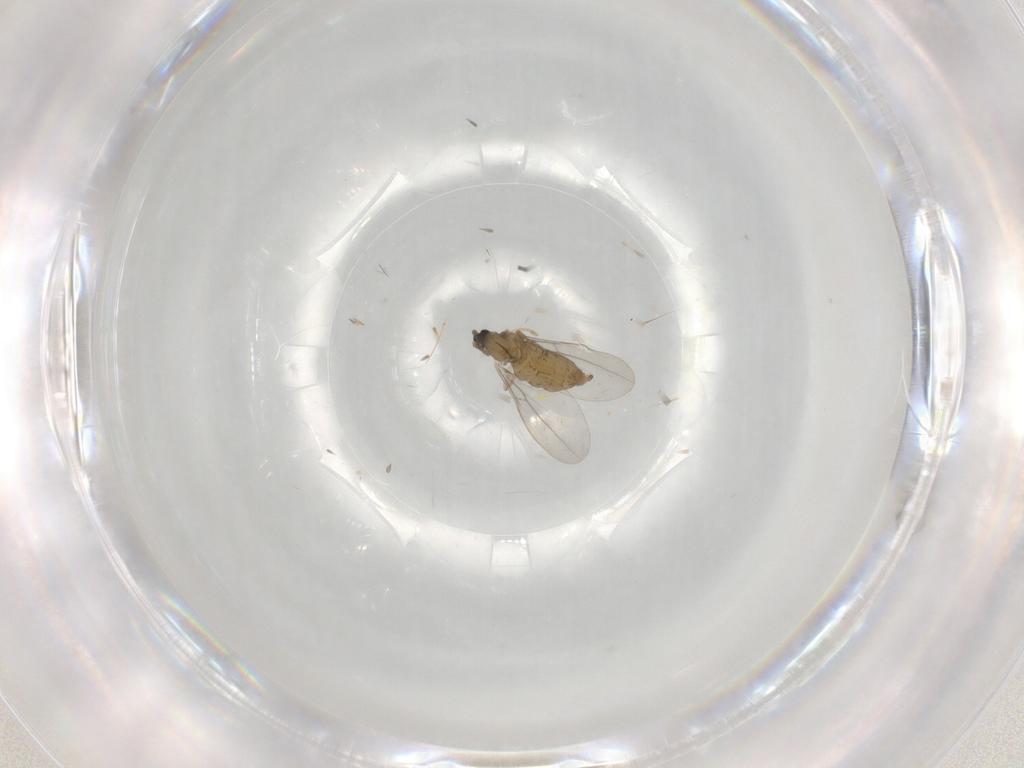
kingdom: Animalia
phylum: Arthropoda
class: Insecta
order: Diptera
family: Cecidomyiidae
